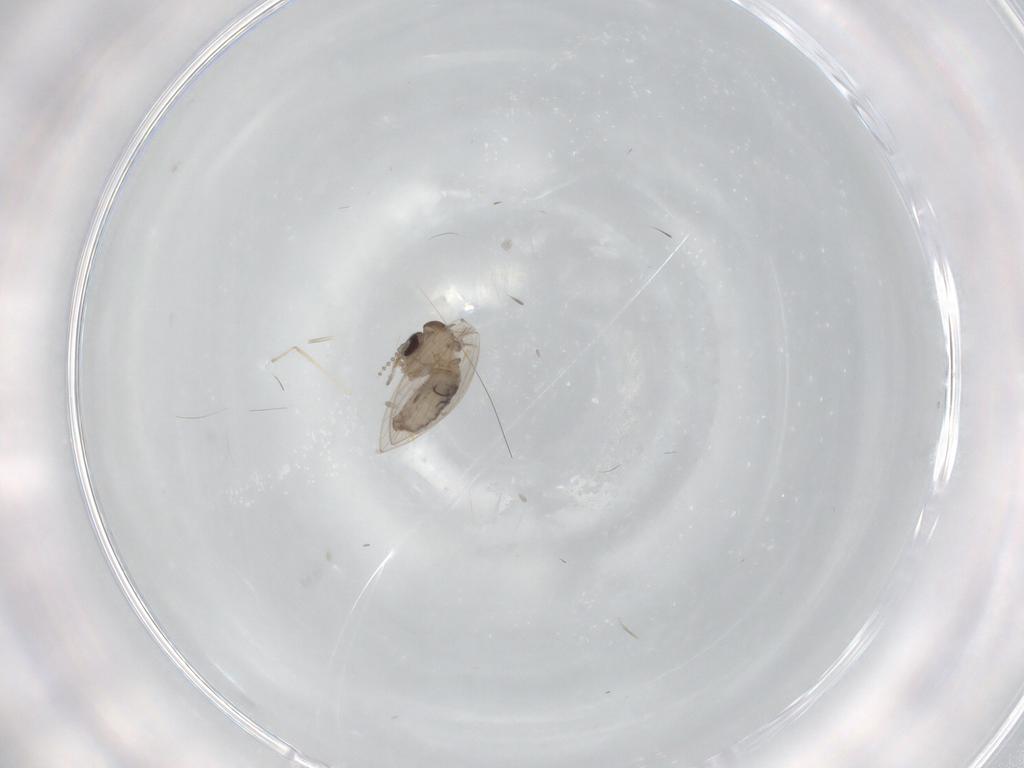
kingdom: Animalia
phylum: Arthropoda
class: Insecta
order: Diptera
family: Psychodidae
